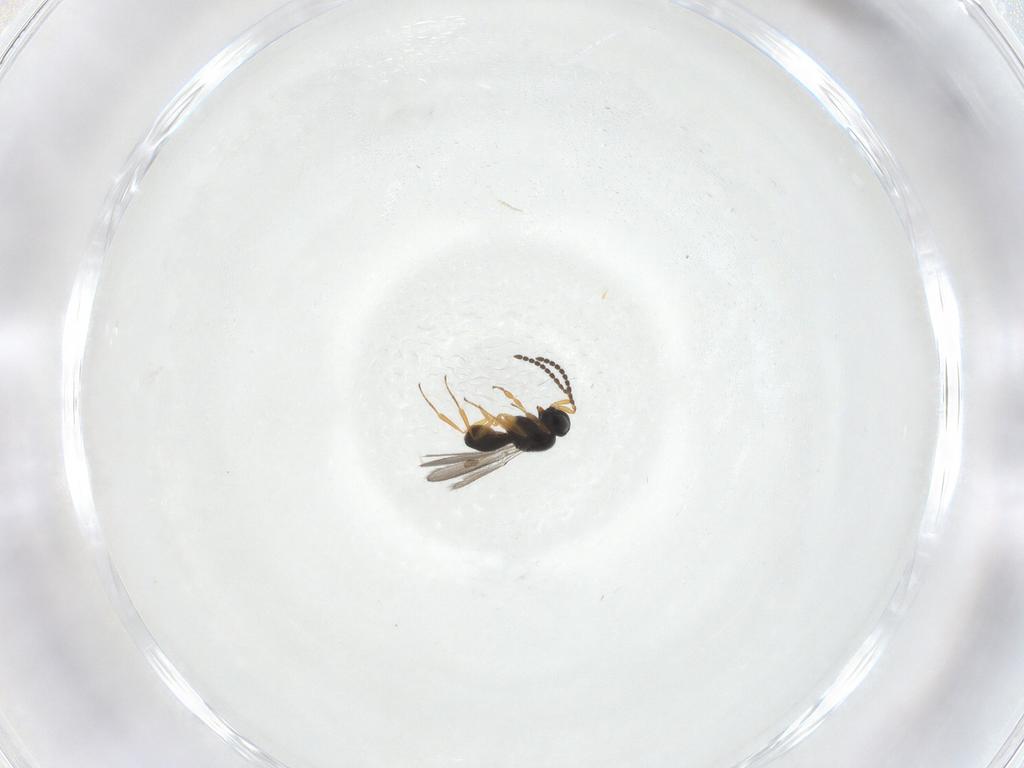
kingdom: Animalia
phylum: Arthropoda
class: Insecta
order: Hymenoptera
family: Scelionidae
